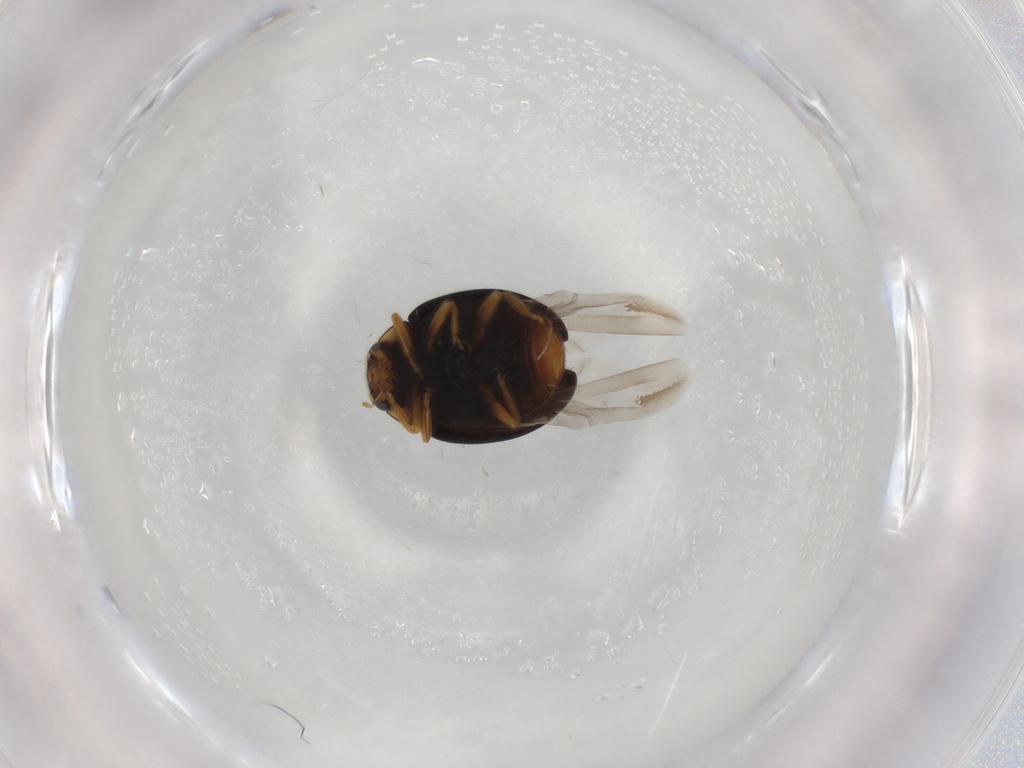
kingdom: Animalia
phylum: Arthropoda
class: Insecta
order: Coleoptera
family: Coccinellidae
